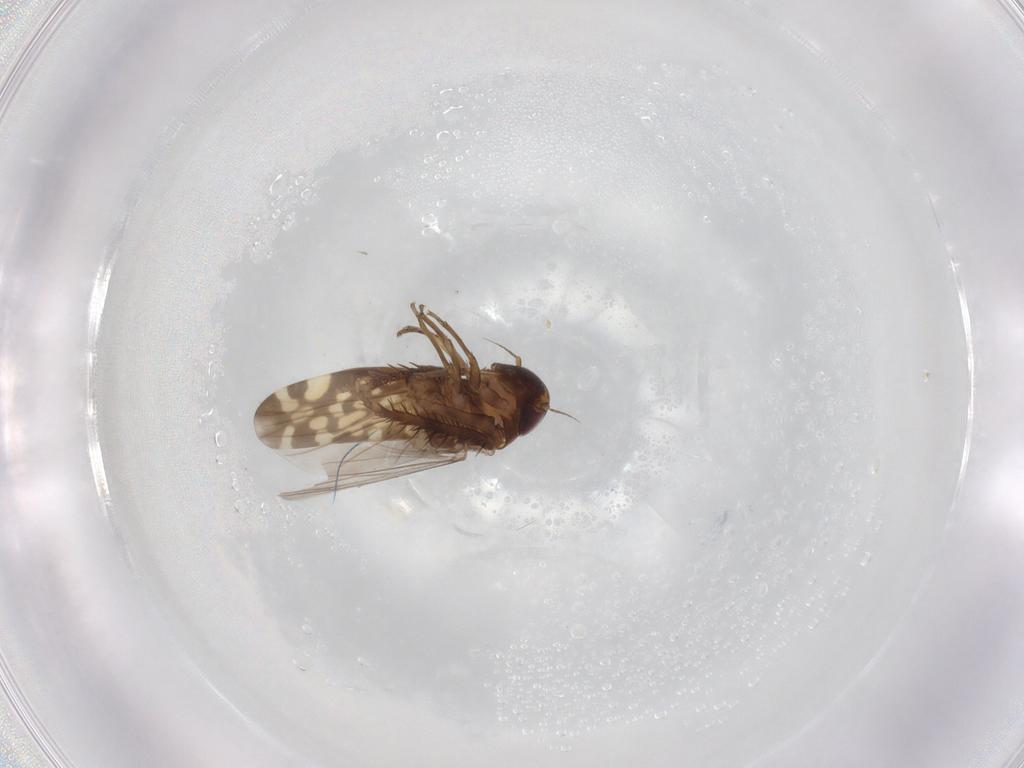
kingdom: Animalia
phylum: Arthropoda
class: Insecta
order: Hemiptera
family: Cicadellidae
